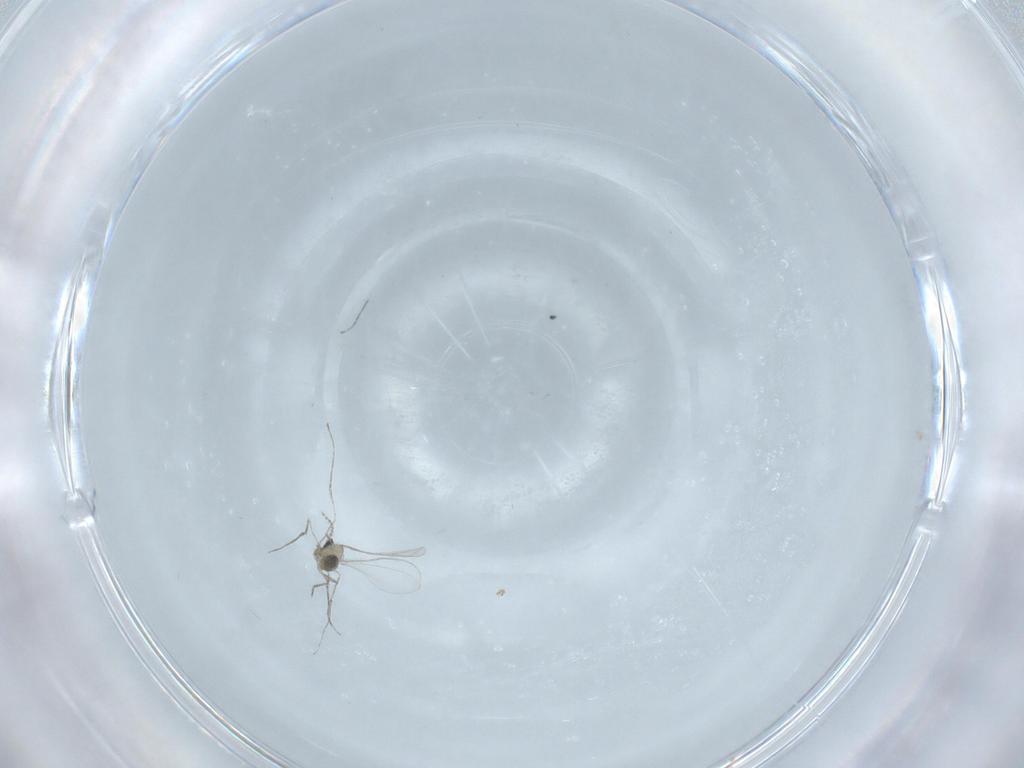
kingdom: Animalia
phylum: Arthropoda
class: Insecta
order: Diptera
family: Cecidomyiidae
